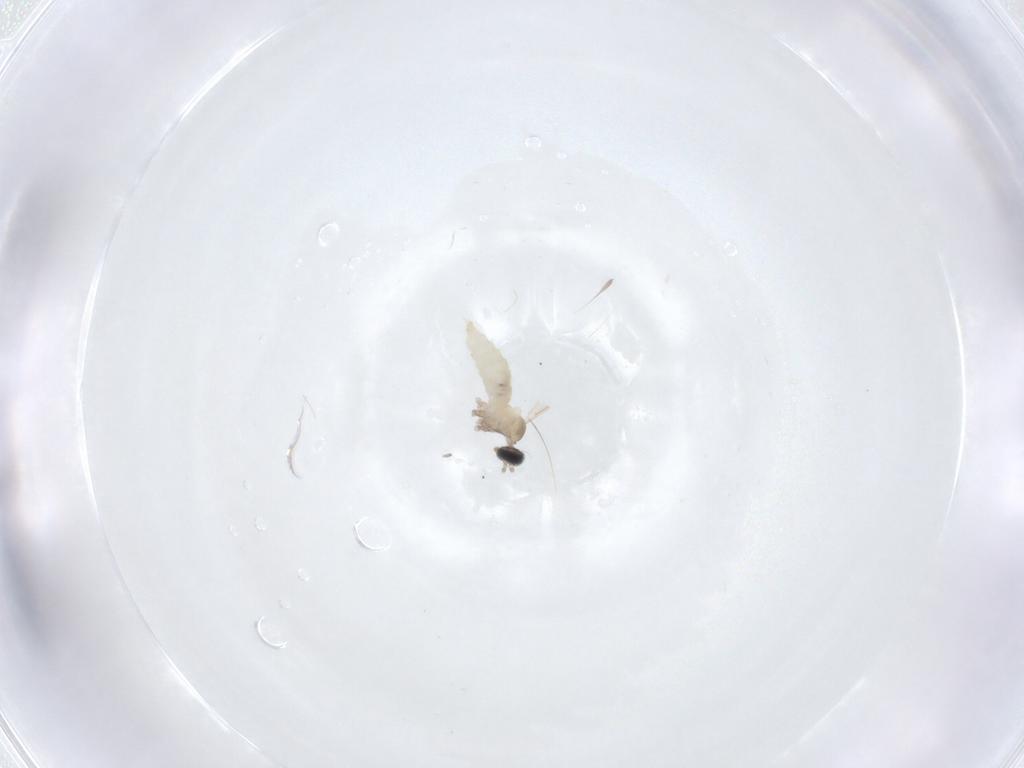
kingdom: Animalia
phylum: Arthropoda
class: Insecta
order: Diptera
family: Cecidomyiidae
